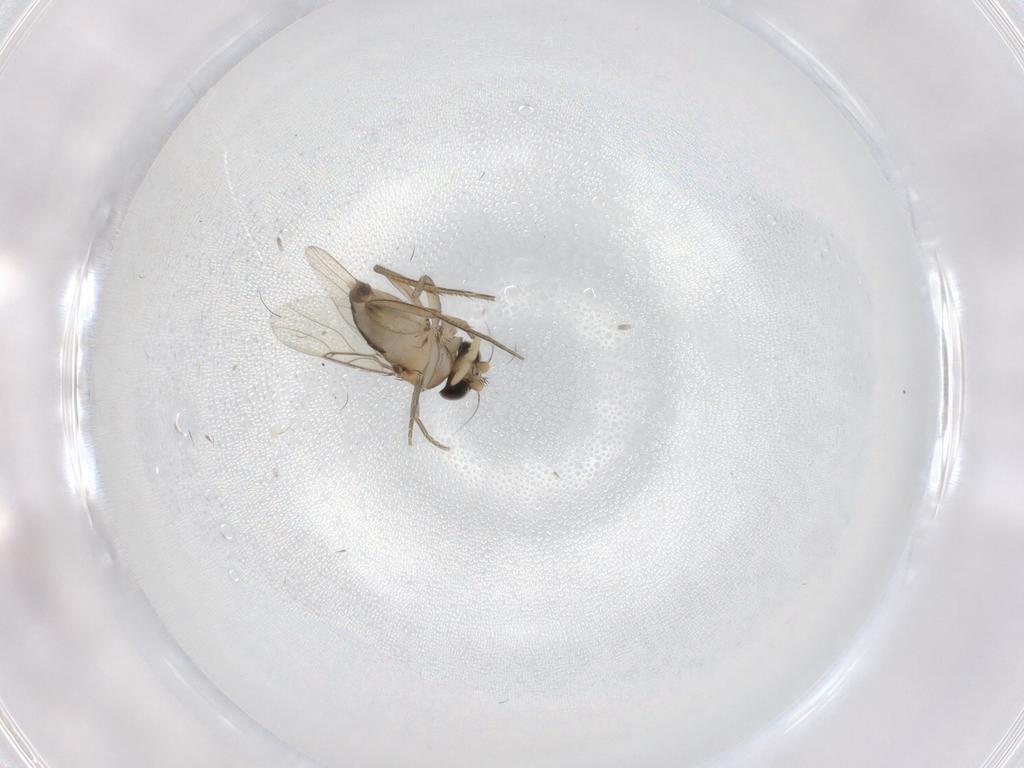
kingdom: Animalia
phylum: Arthropoda
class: Insecta
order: Diptera
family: Phoridae
